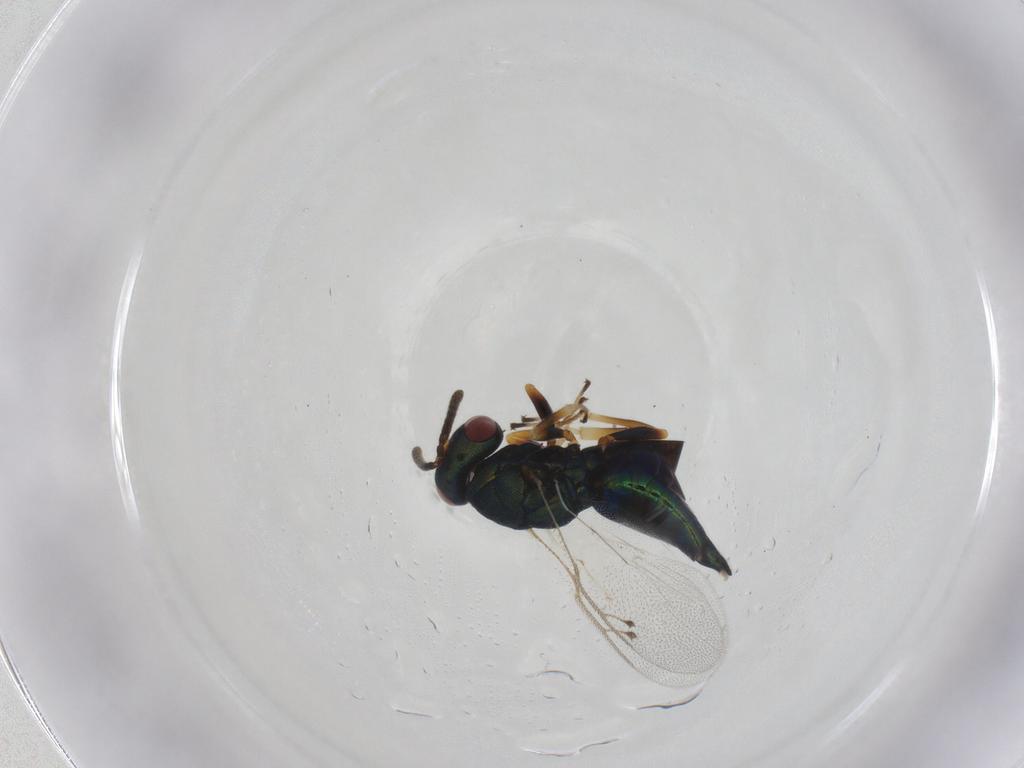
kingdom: Animalia
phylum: Arthropoda
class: Insecta
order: Hymenoptera
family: Pteromalidae
